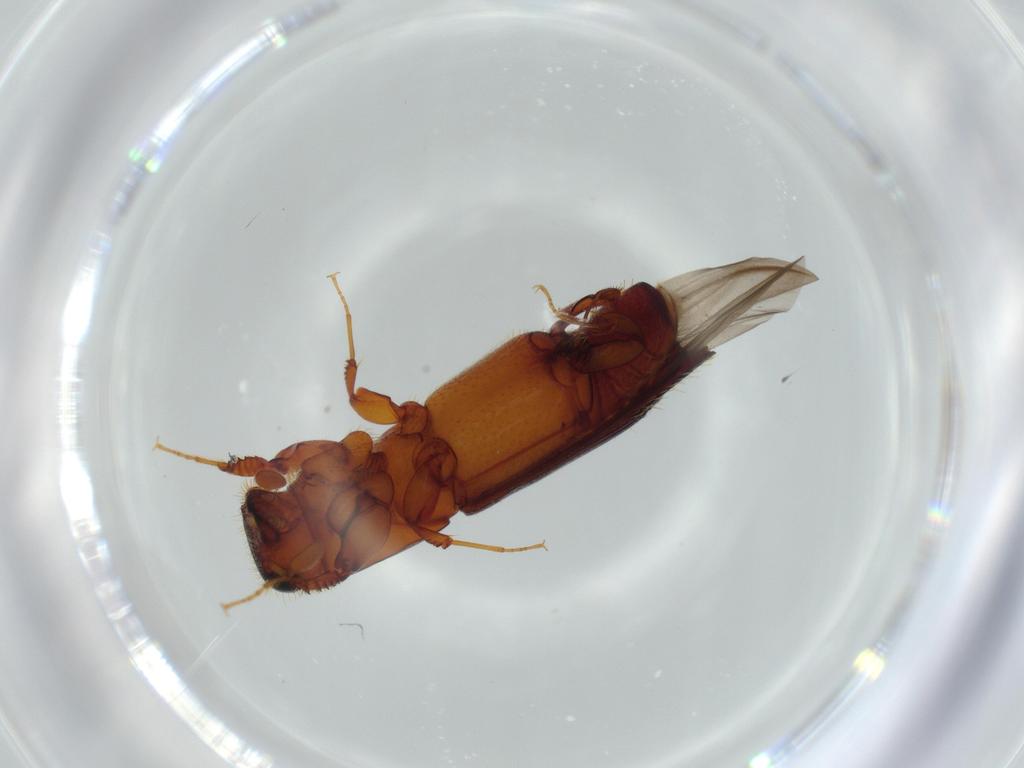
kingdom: Animalia
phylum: Arthropoda
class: Insecta
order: Coleoptera
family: Curculionidae
